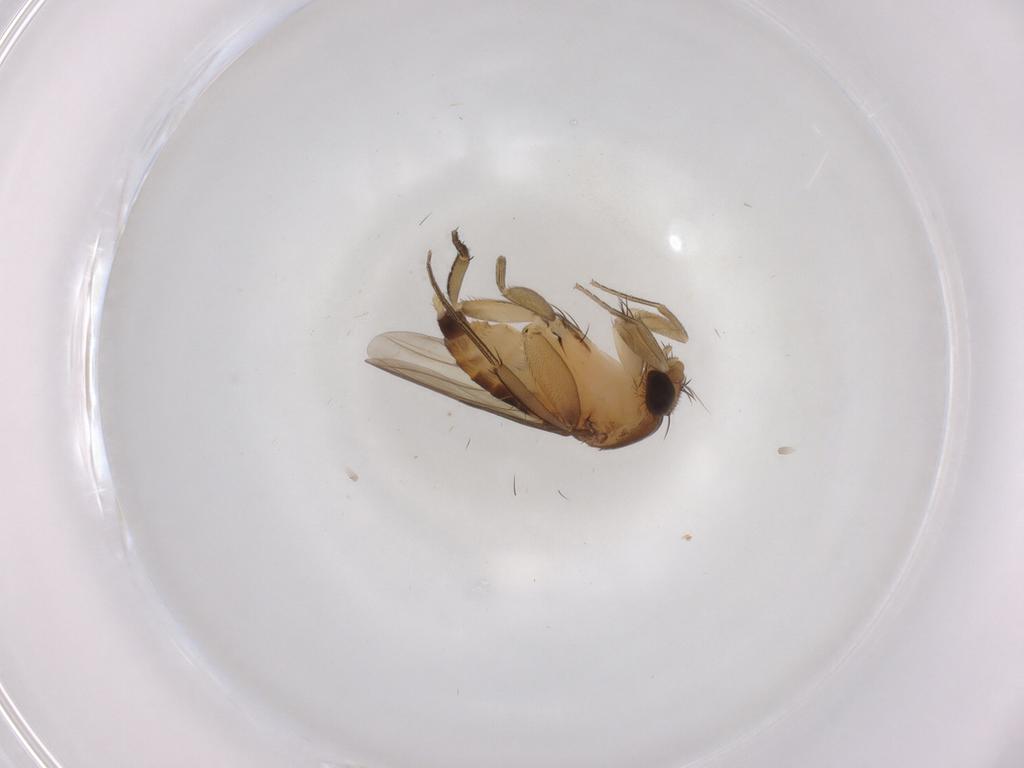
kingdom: Animalia
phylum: Arthropoda
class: Insecta
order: Diptera
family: Phoridae
